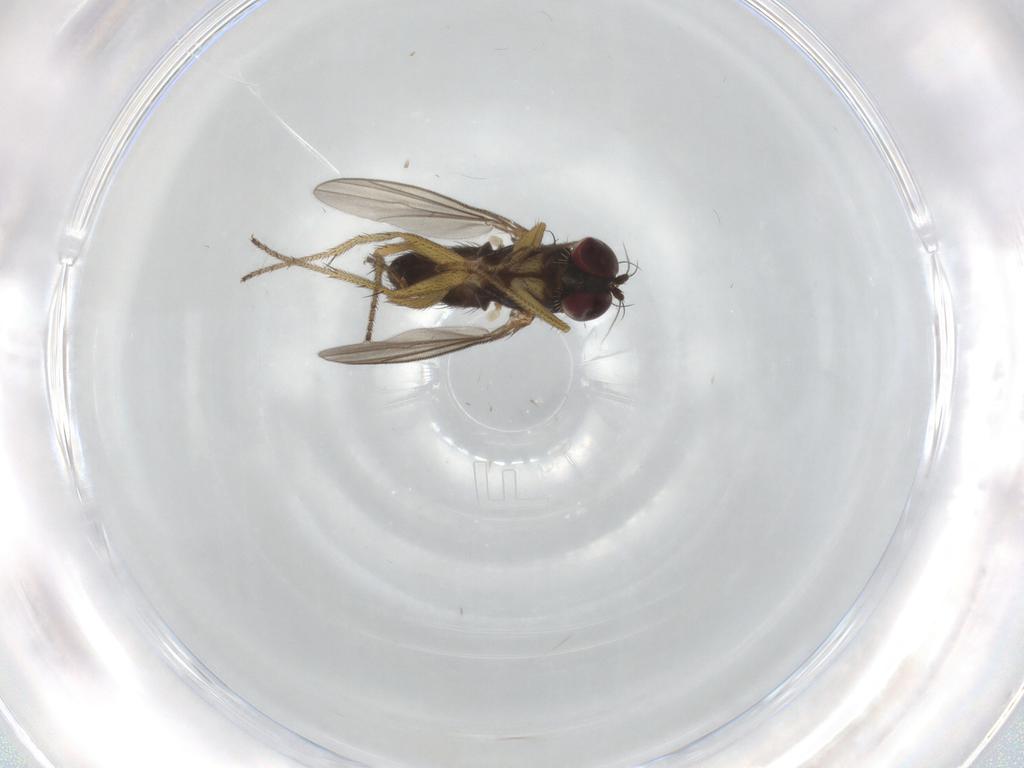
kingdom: Animalia
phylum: Arthropoda
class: Insecta
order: Diptera
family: Dolichopodidae
